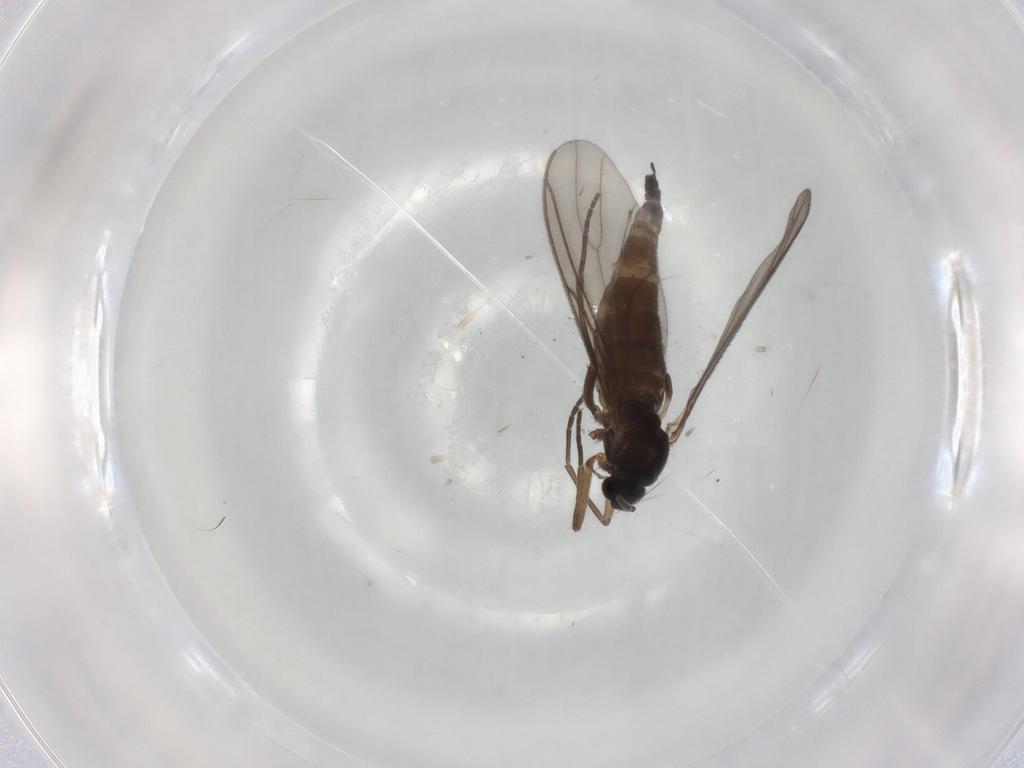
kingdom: Animalia
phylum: Arthropoda
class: Insecta
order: Diptera
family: Sciaridae
